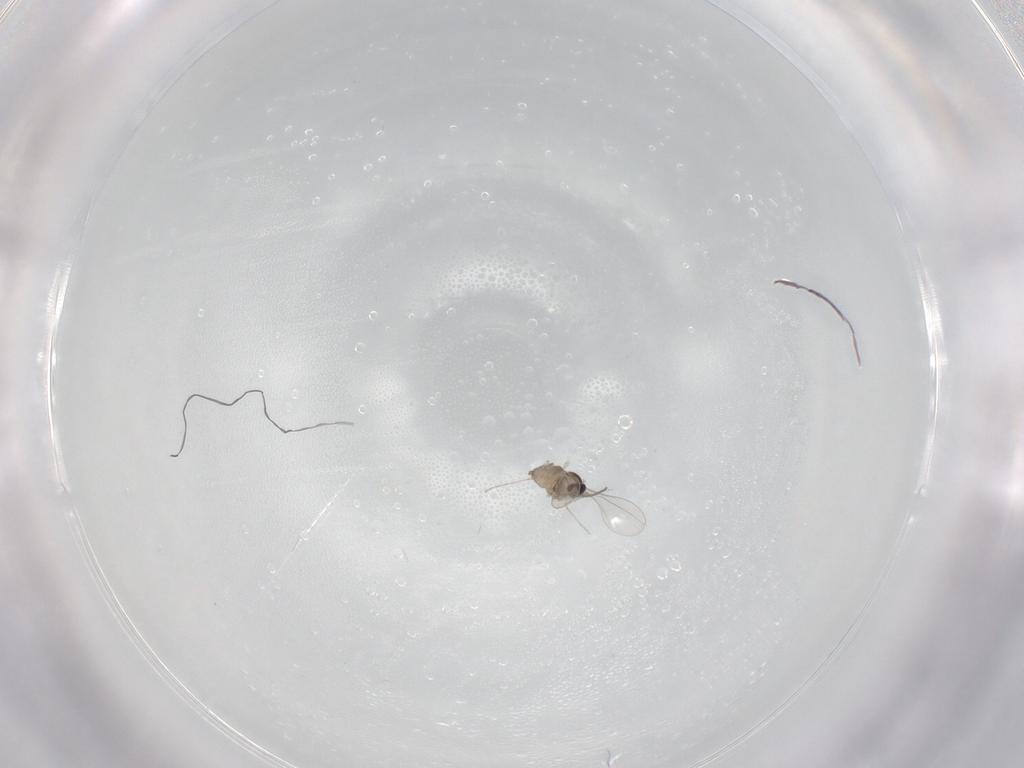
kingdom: Animalia
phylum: Arthropoda
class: Insecta
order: Diptera
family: Cecidomyiidae
